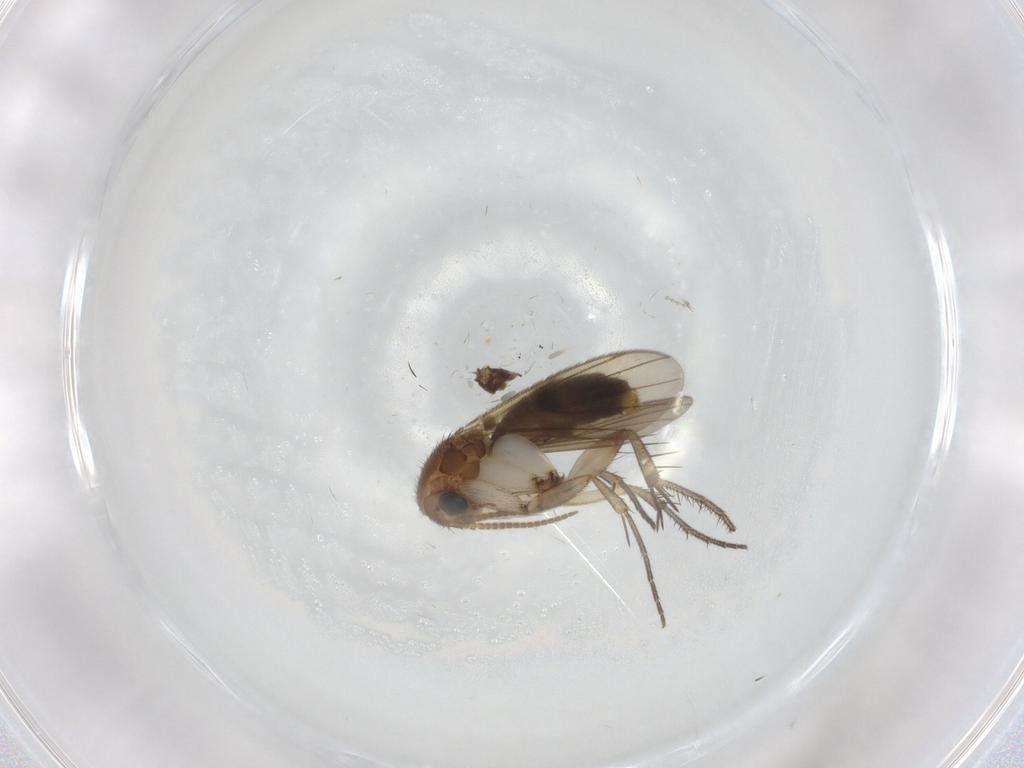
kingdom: Animalia
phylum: Arthropoda
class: Insecta
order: Diptera
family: Mycetophilidae
